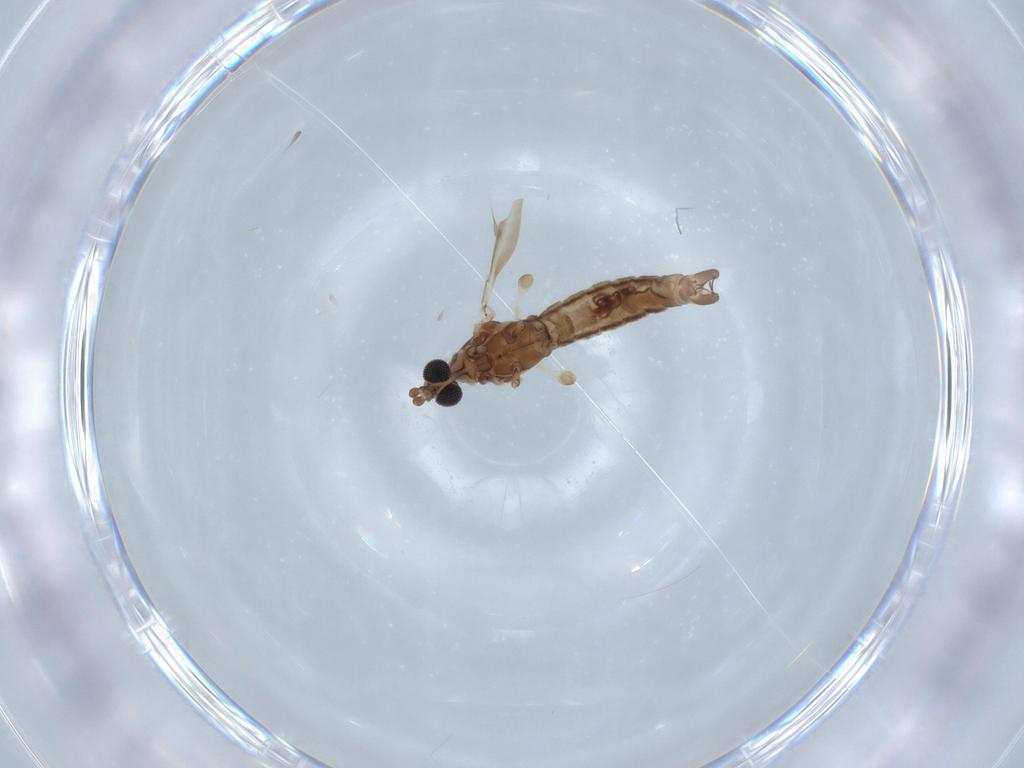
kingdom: Animalia
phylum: Arthropoda
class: Insecta
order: Diptera
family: Limoniidae
